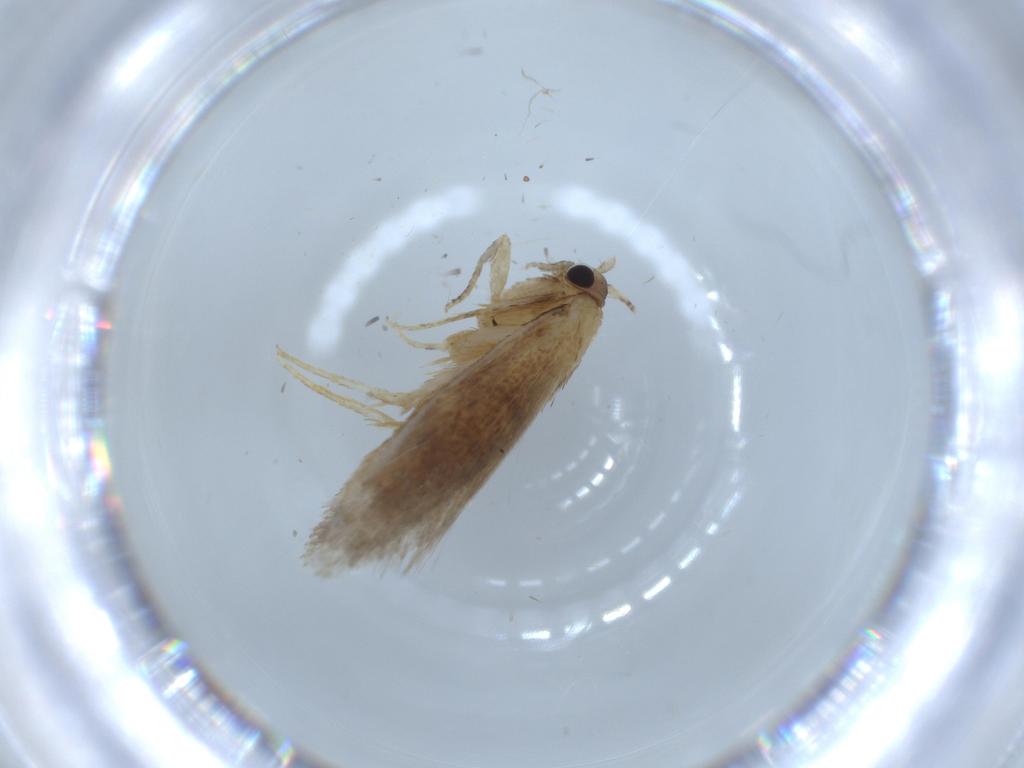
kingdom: Animalia
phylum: Arthropoda
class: Insecta
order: Lepidoptera
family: Tineidae
